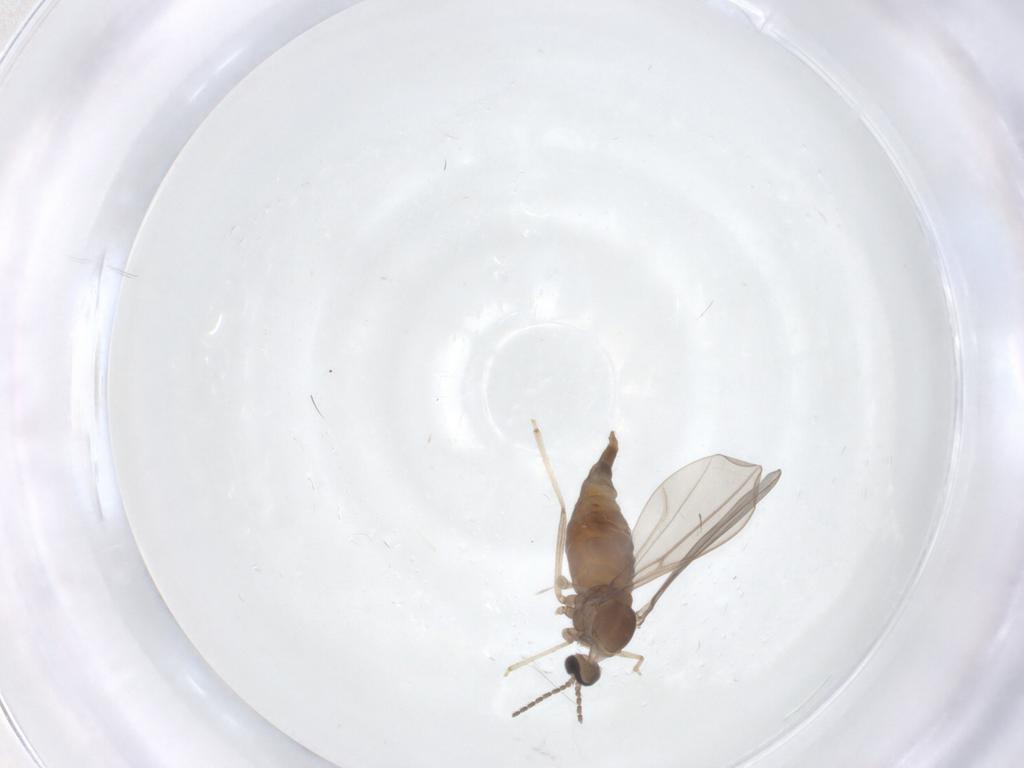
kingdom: Animalia
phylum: Arthropoda
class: Insecta
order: Diptera
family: Cecidomyiidae
